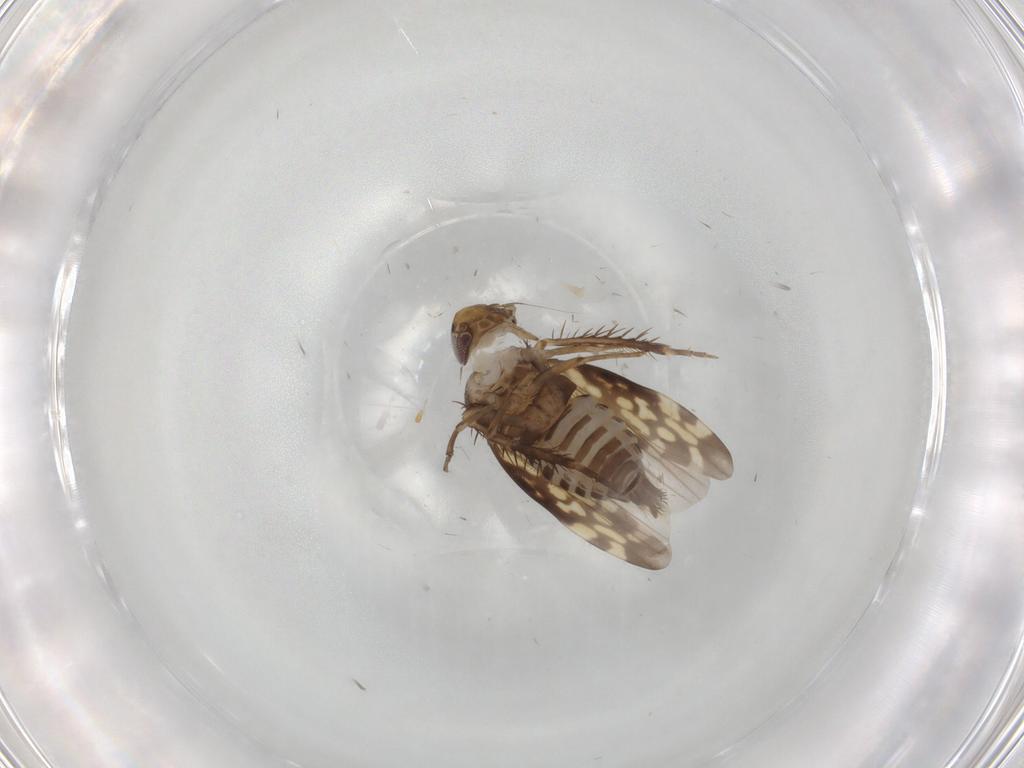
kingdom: Animalia
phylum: Arthropoda
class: Insecta
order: Hemiptera
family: Cicadellidae
